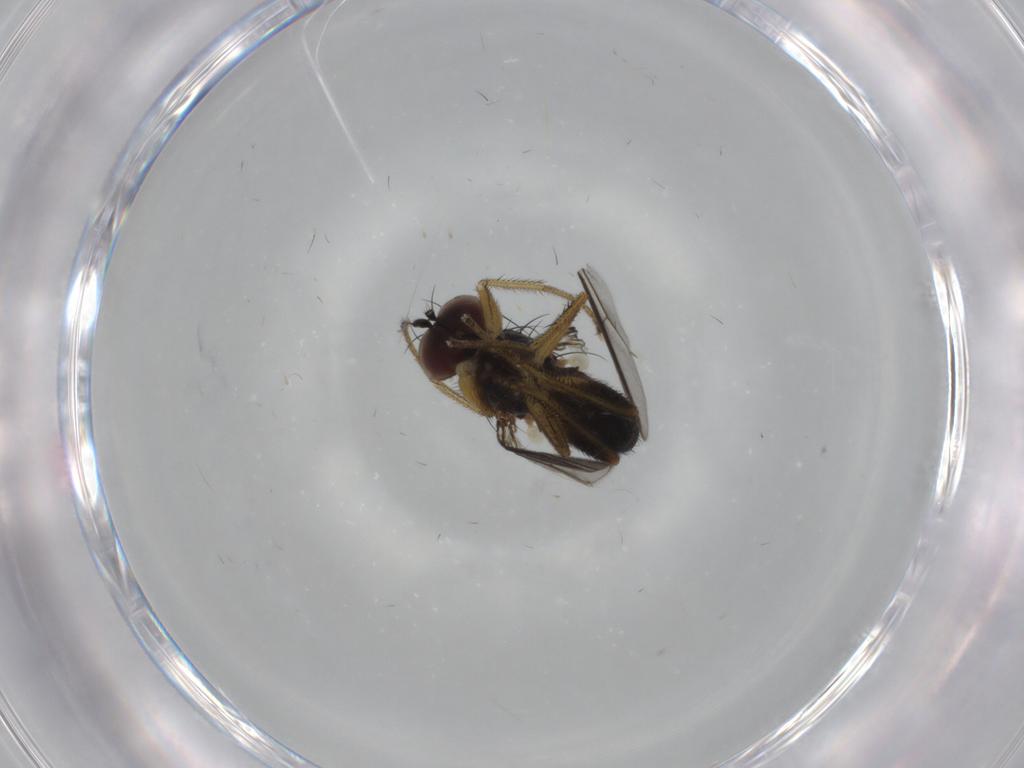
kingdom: Animalia
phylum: Arthropoda
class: Insecta
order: Diptera
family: Dolichopodidae
